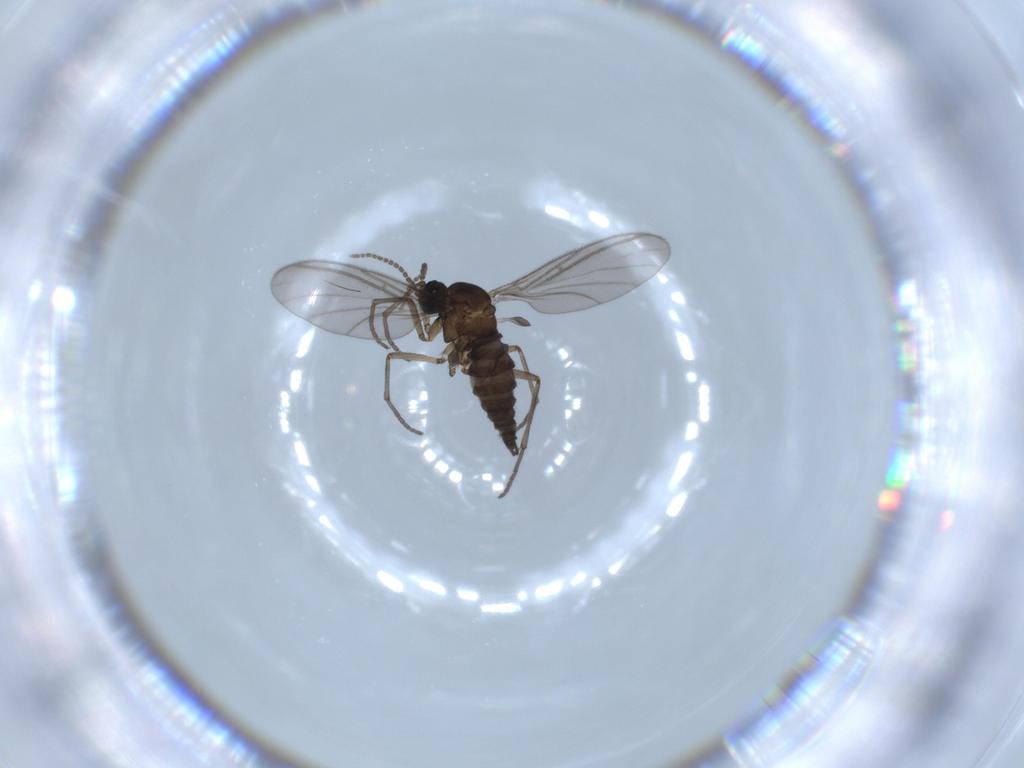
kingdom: Animalia
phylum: Arthropoda
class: Insecta
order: Diptera
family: Sciaridae
